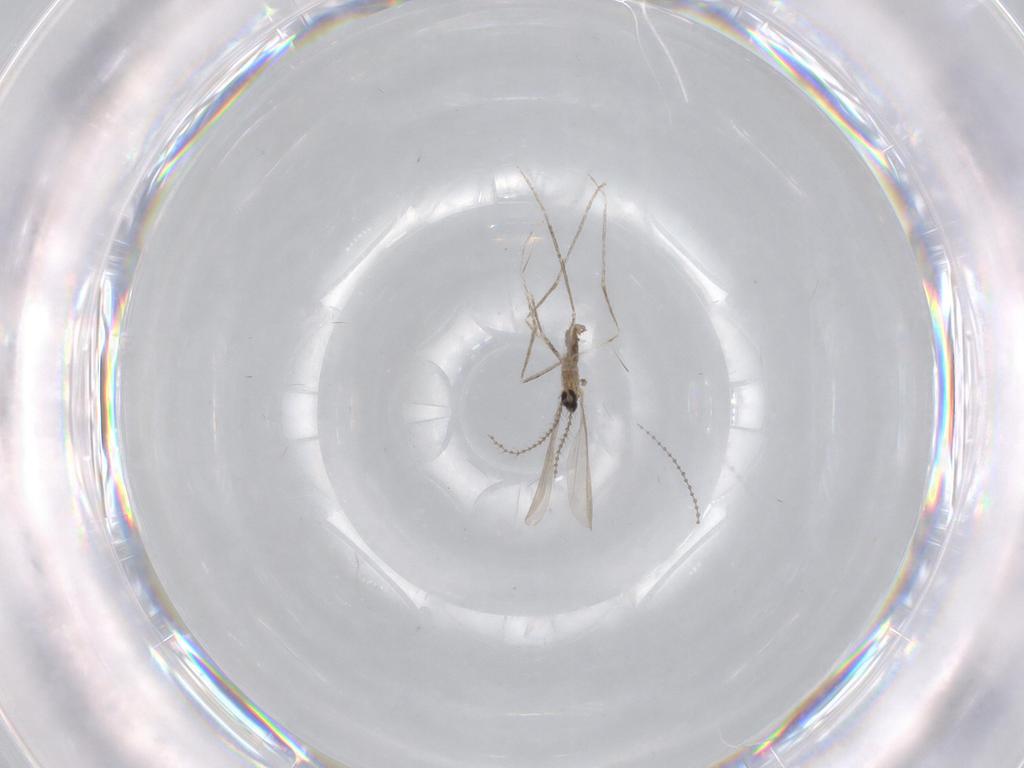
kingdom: Animalia
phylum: Arthropoda
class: Insecta
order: Diptera
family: Cecidomyiidae
